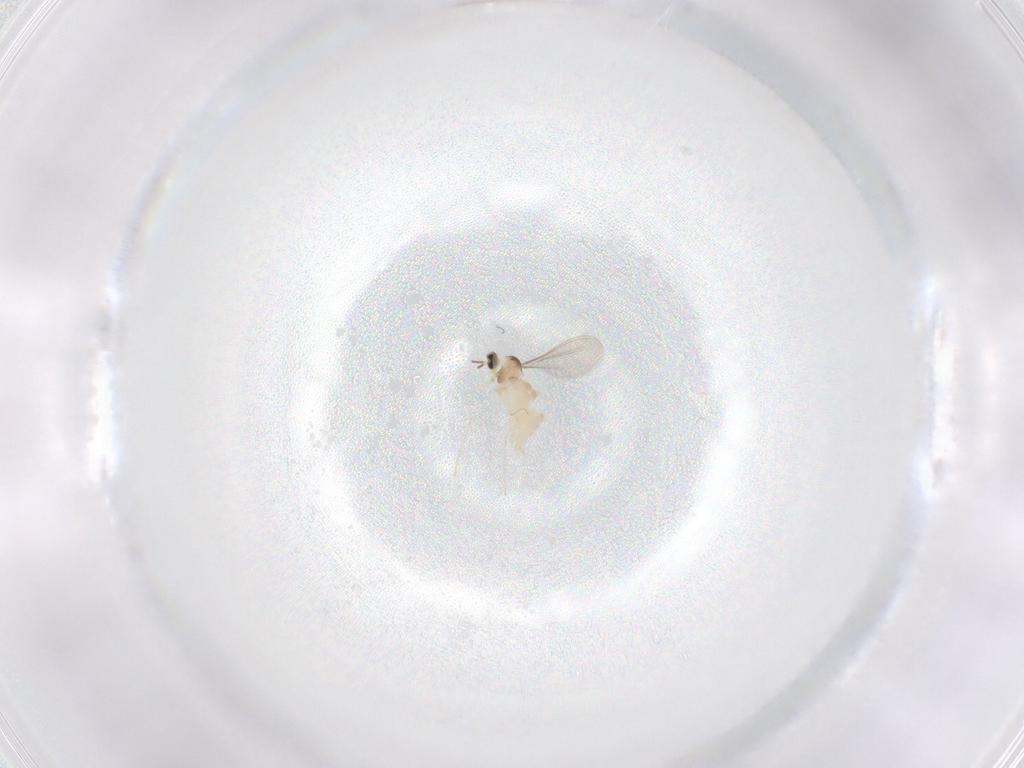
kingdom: Animalia
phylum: Arthropoda
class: Insecta
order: Diptera
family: Cecidomyiidae
